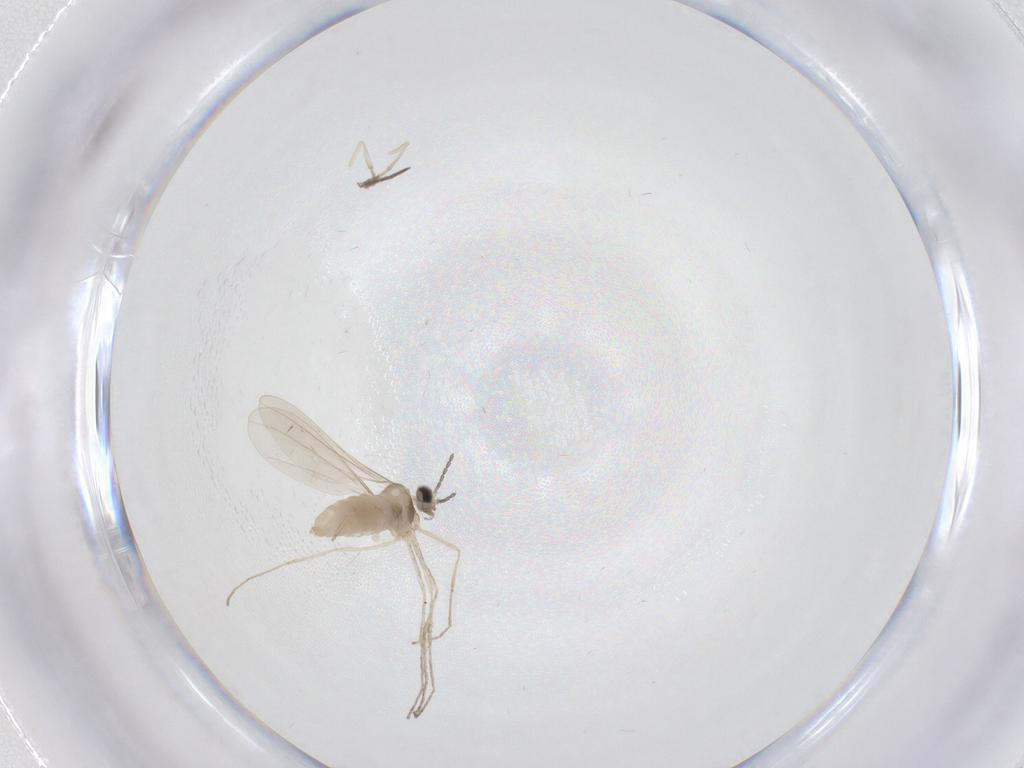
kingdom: Animalia
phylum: Arthropoda
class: Insecta
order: Diptera
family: Cecidomyiidae
